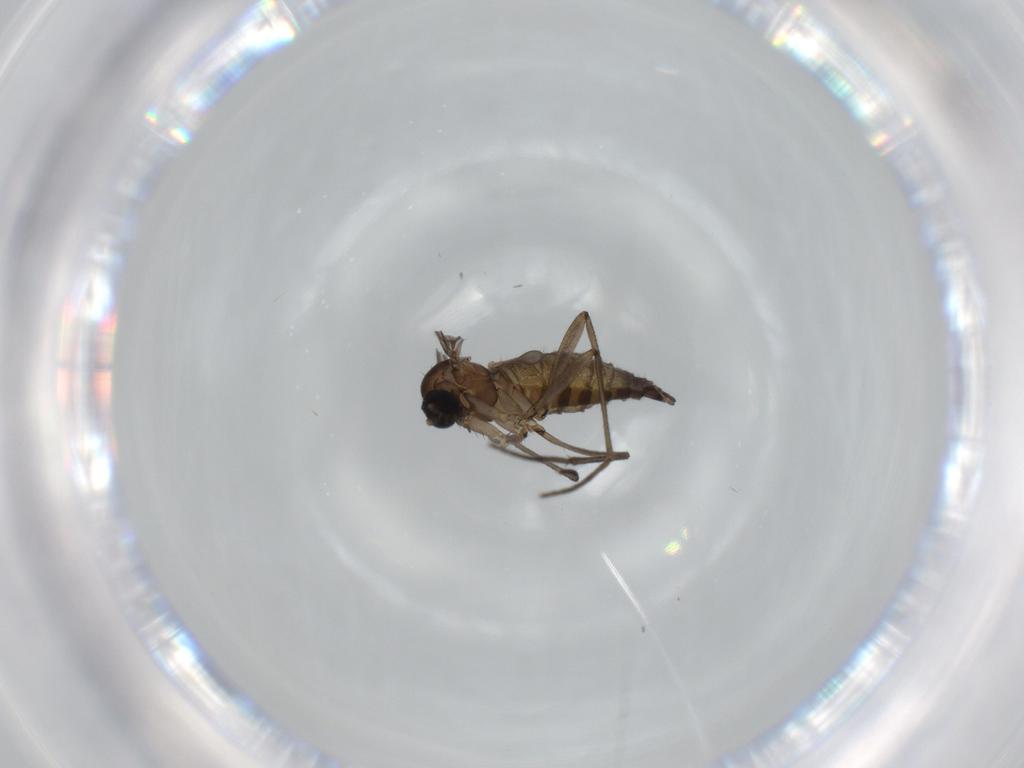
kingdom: Animalia
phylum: Arthropoda
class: Insecta
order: Diptera
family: Sciaridae
